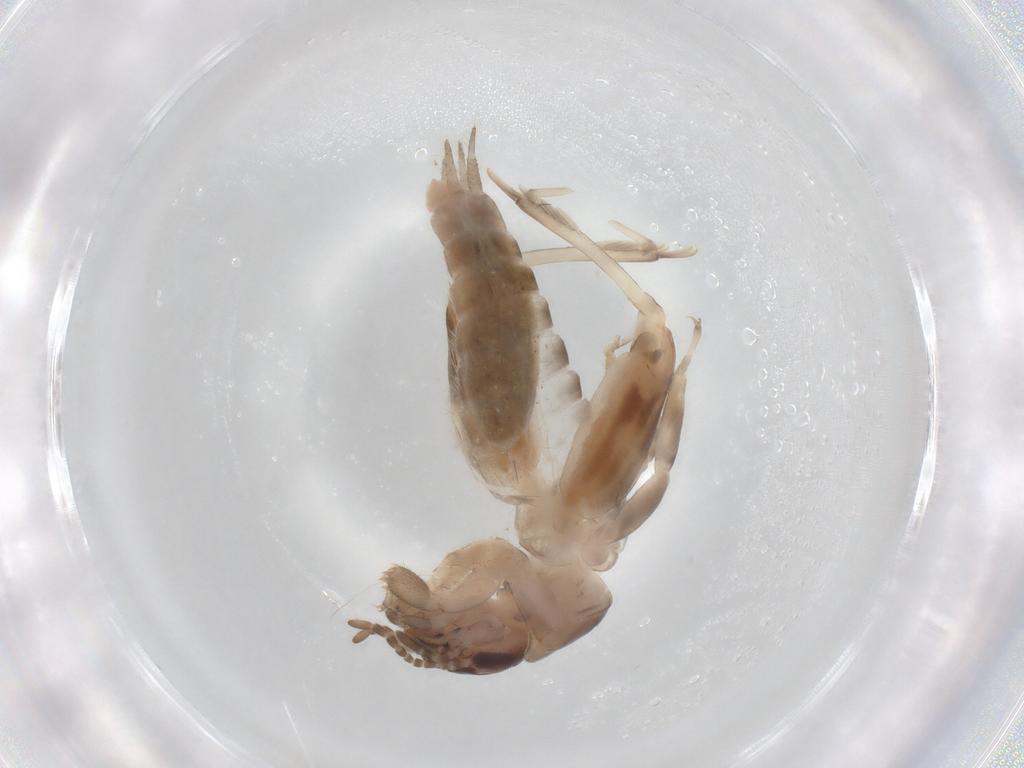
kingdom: Animalia
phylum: Arthropoda
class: Insecta
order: Orthoptera
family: Tridactylidae
